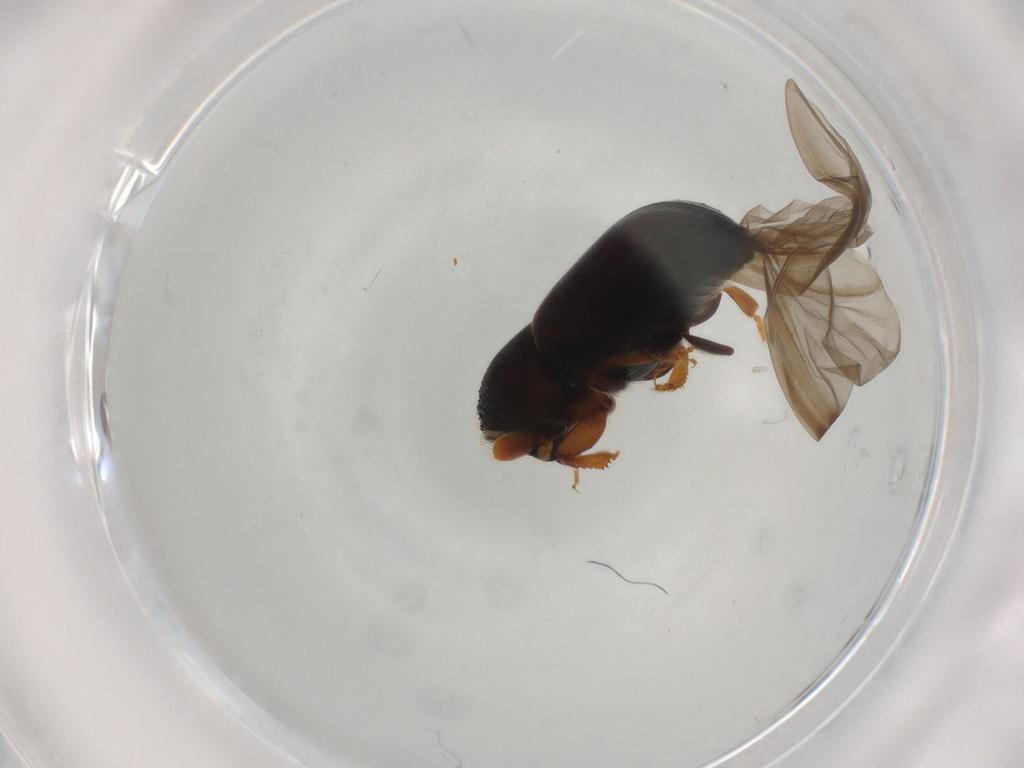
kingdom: Animalia
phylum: Arthropoda
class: Insecta
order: Coleoptera
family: Curculionidae
